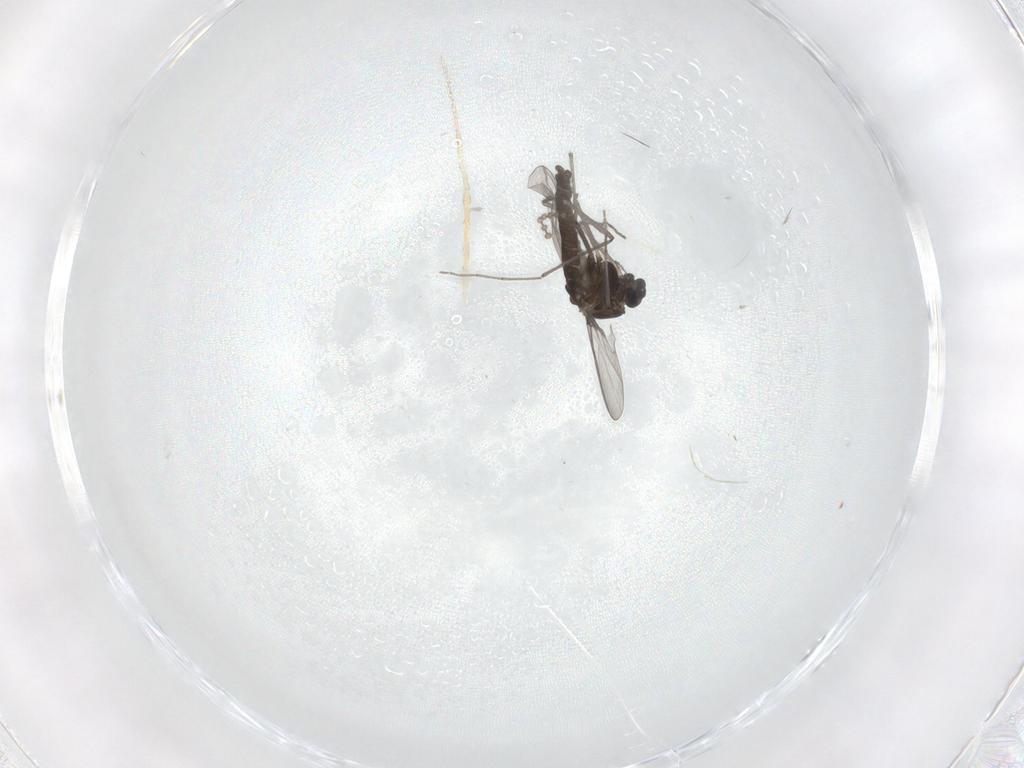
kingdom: Animalia
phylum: Arthropoda
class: Insecta
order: Diptera
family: Chironomidae
